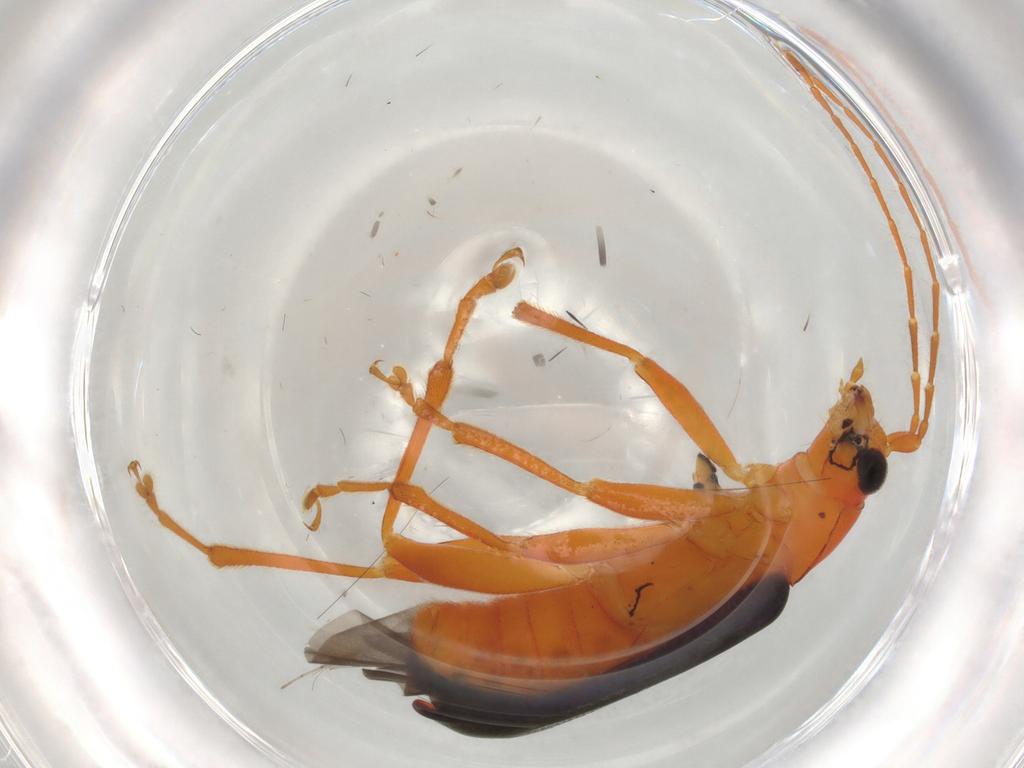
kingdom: Animalia
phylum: Arthropoda
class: Insecta
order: Coleoptera
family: Chrysomelidae
